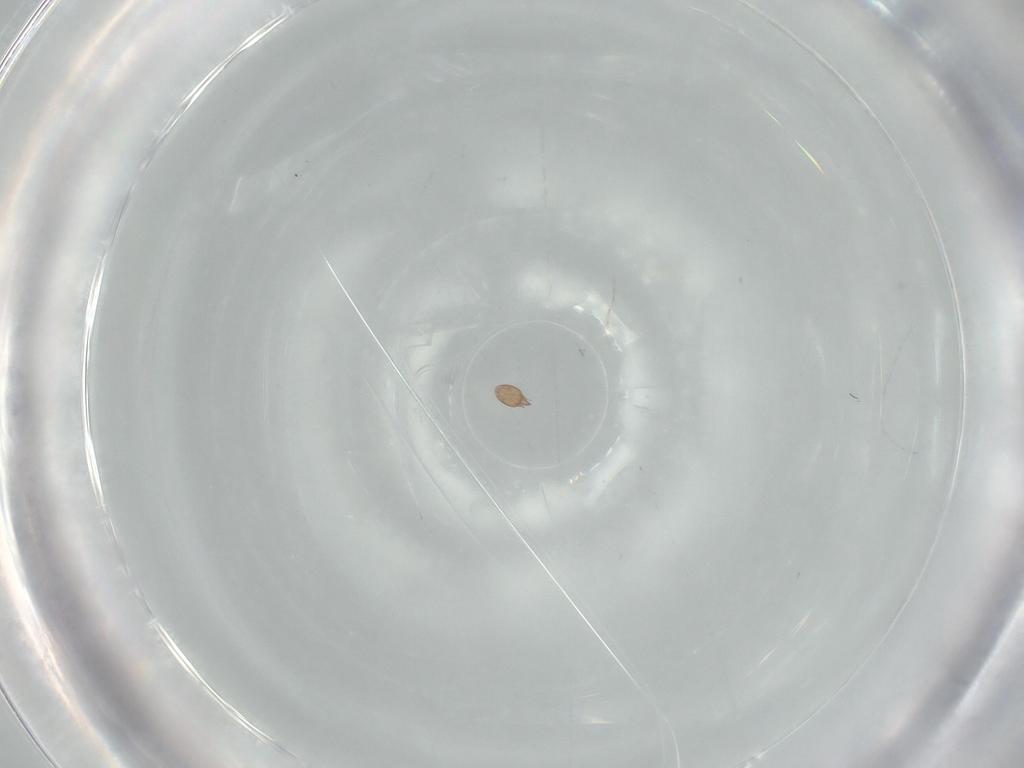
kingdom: Animalia
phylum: Arthropoda
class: Arachnida
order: Sarcoptiformes
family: Acaridae
